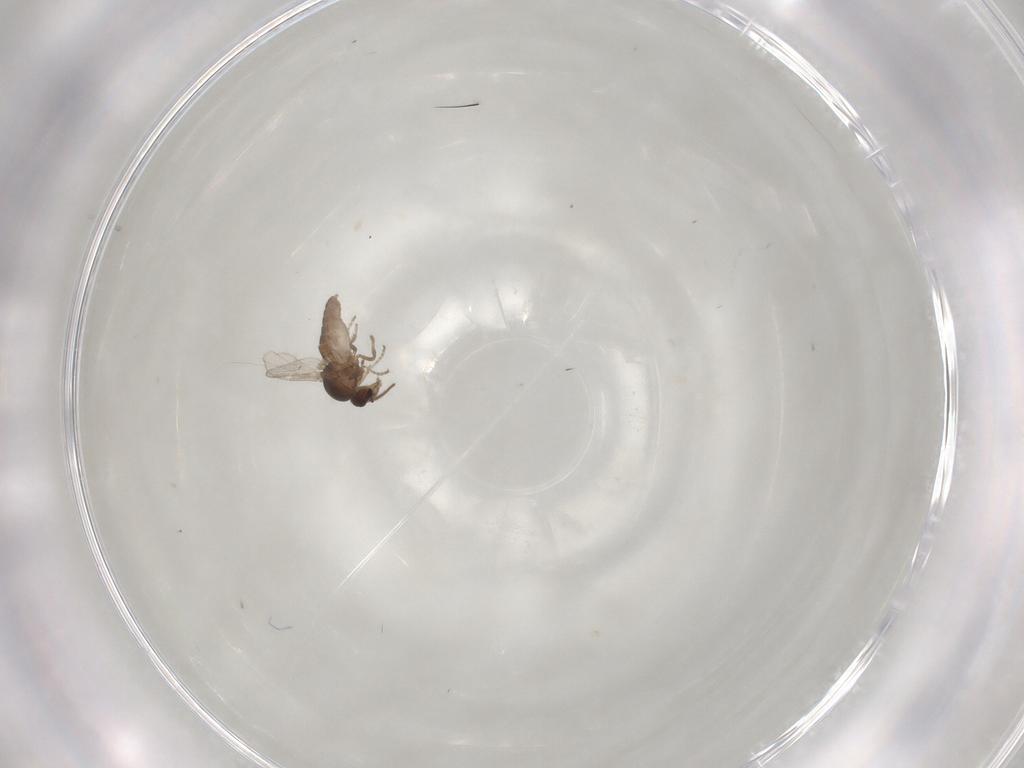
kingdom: Animalia
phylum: Arthropoda
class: Insecta
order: Diptera
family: Ceratopogonidae
